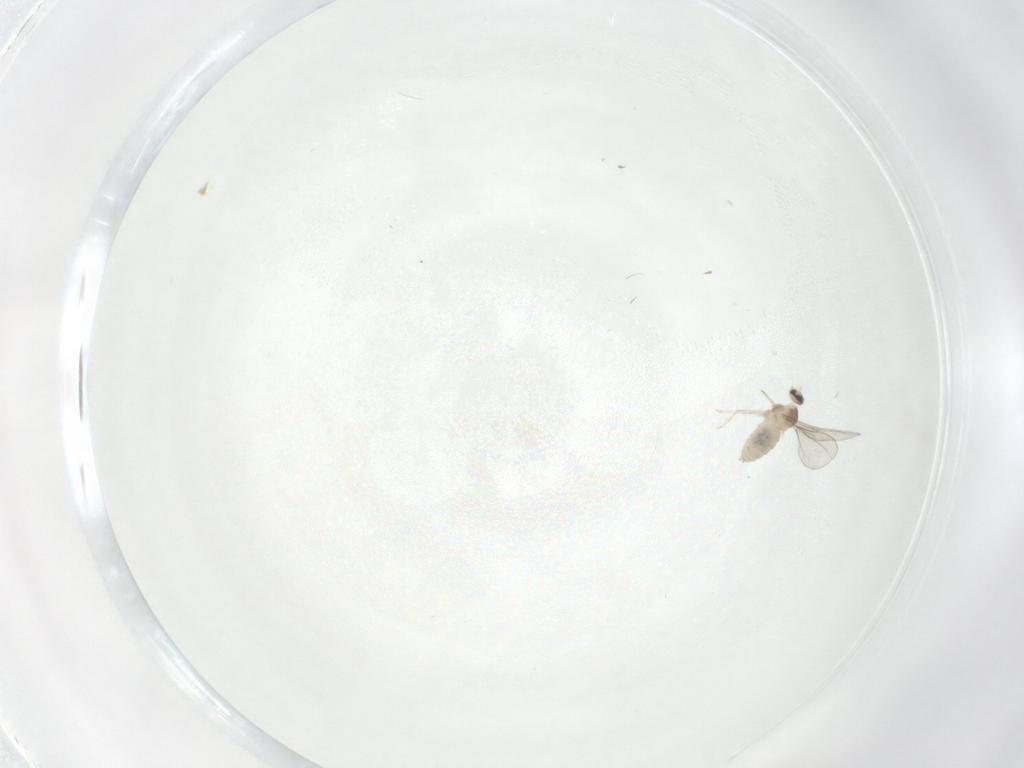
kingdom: Animalia
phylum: Arthropoda
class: Insecta
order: Diptera
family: Cecidomyiidae
